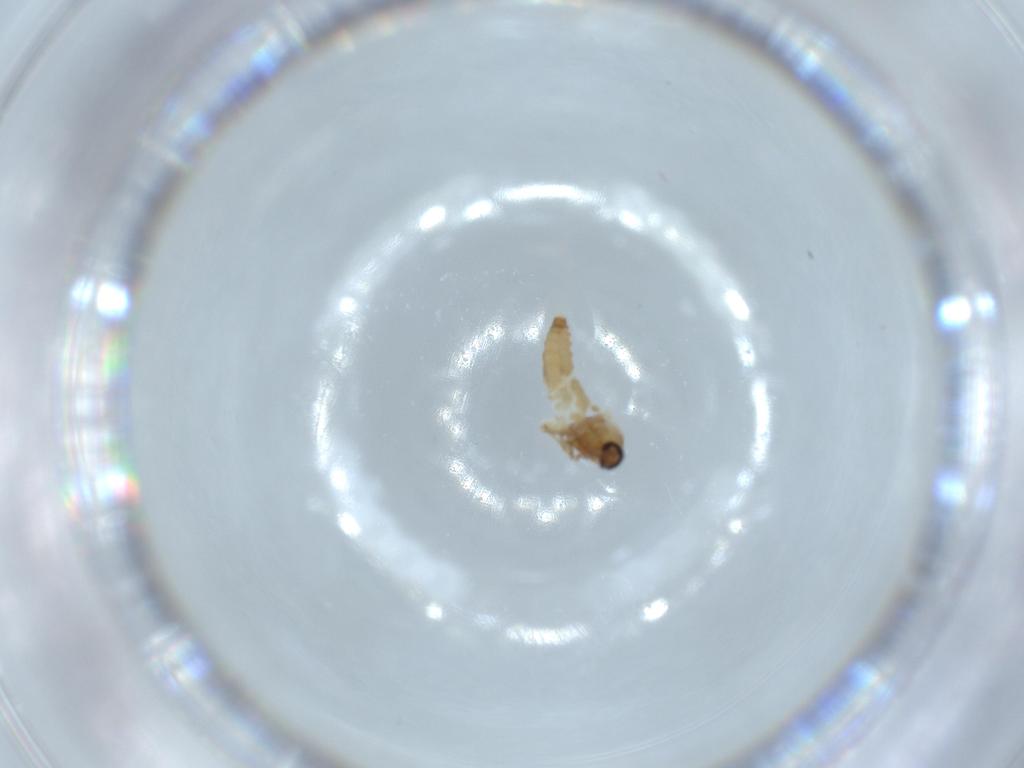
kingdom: Animalia
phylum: Arthropoda
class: Insecta
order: Diptera
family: Ceratopogonidae
